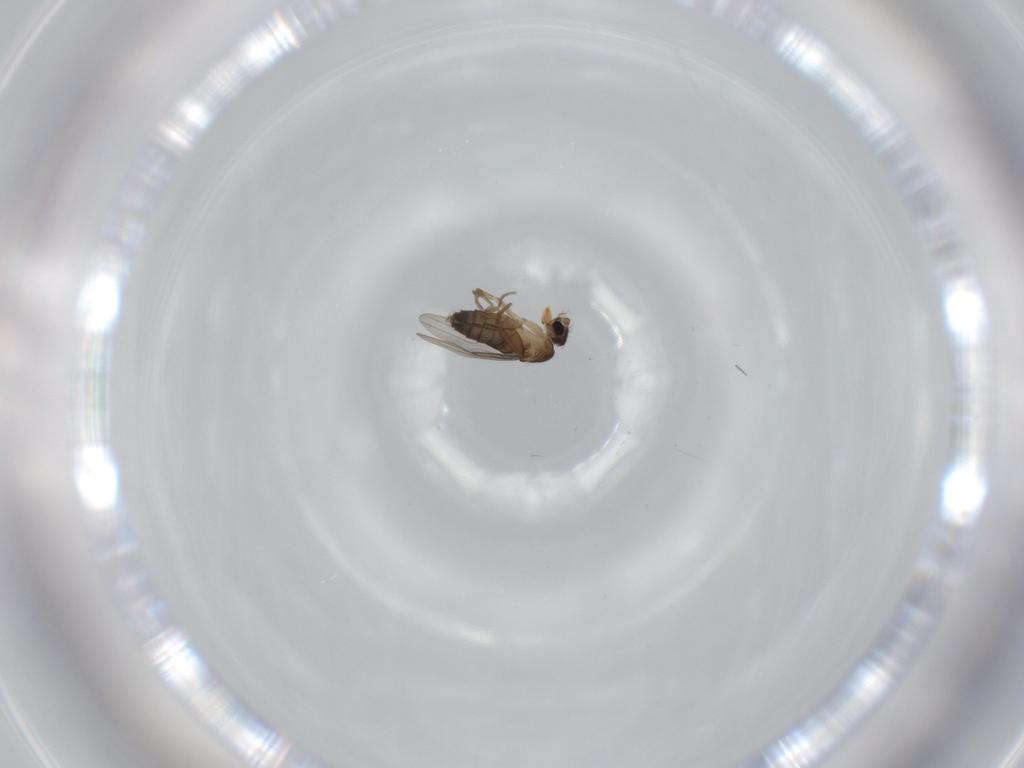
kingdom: Animalia
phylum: Arthropoda
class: Insecta
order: Diptera
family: Phoridae
